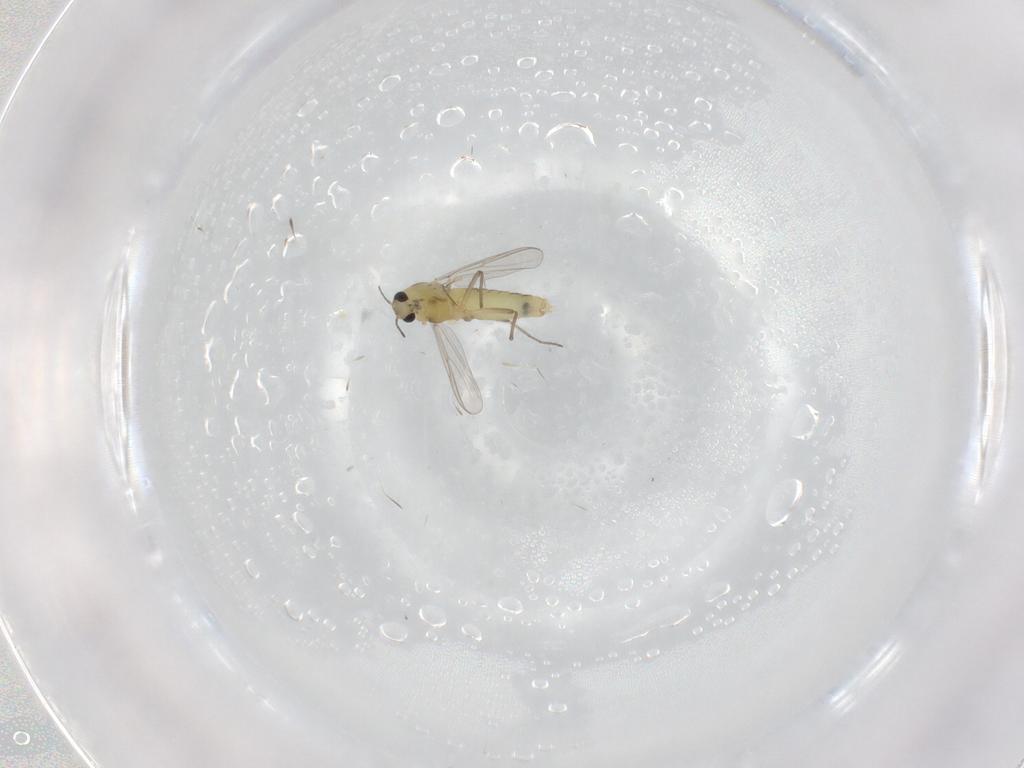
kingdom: Animalia
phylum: Arthropoda
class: Insecta
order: Diptera
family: Cecidomyiidae
